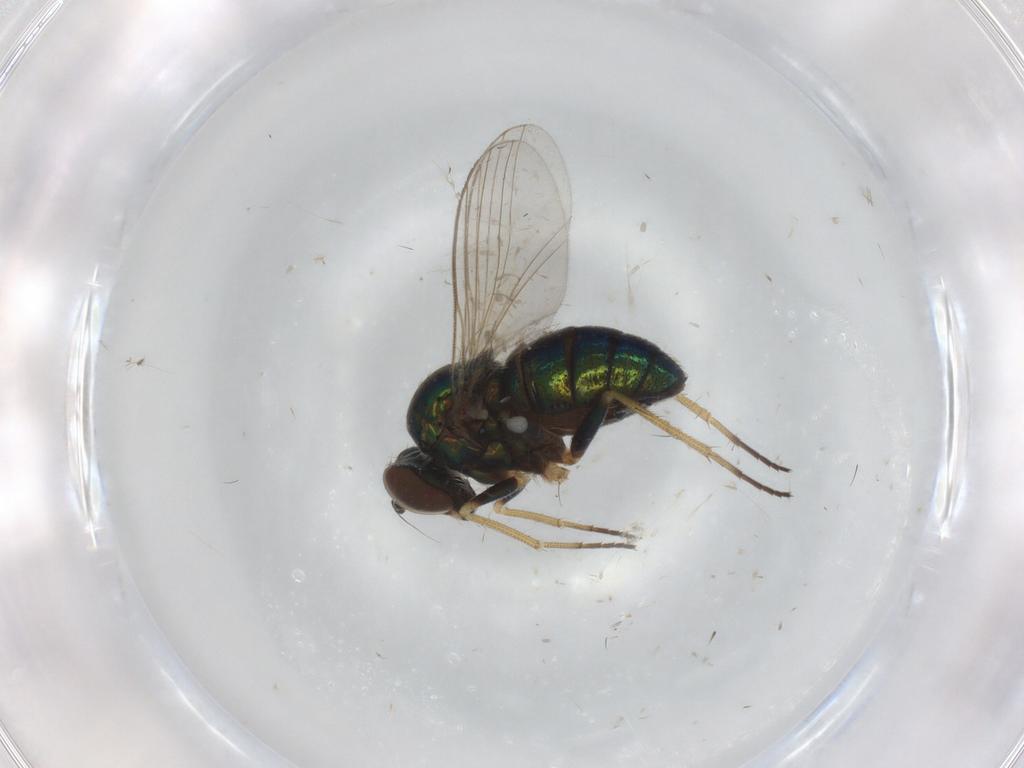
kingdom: Animalia
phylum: Arthropoda
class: Insecta
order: Diptera
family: Dolichopodidae
